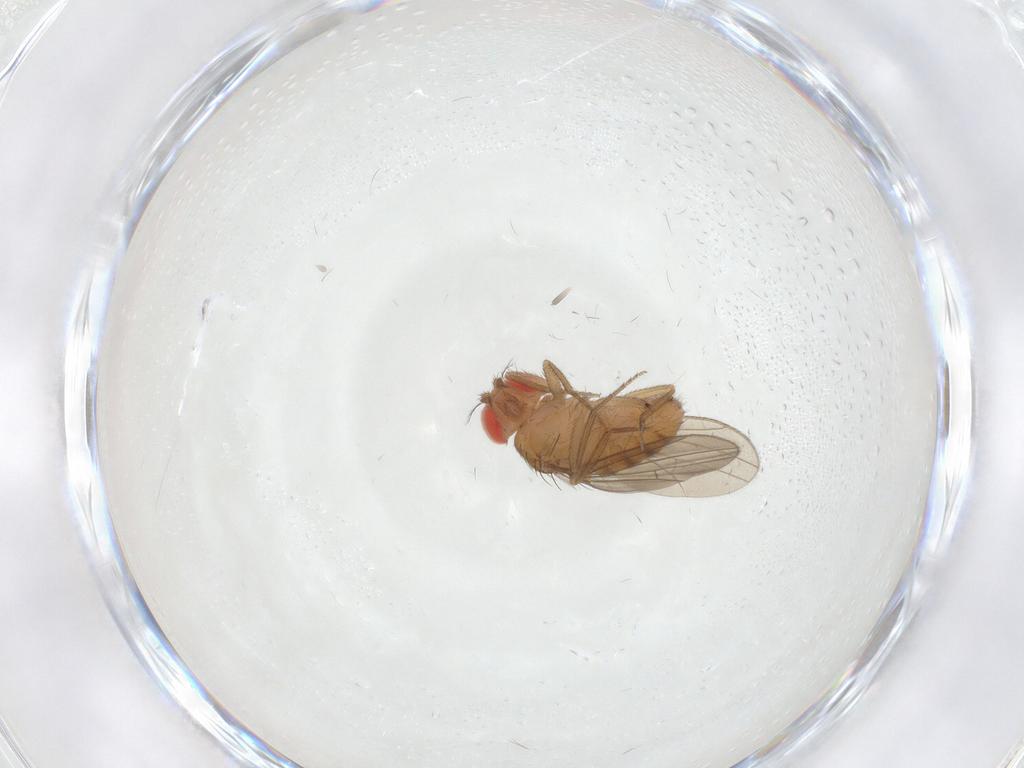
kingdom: Animalia
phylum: Arthropoda
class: Insecta
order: Diptera
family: Drosophilidae
